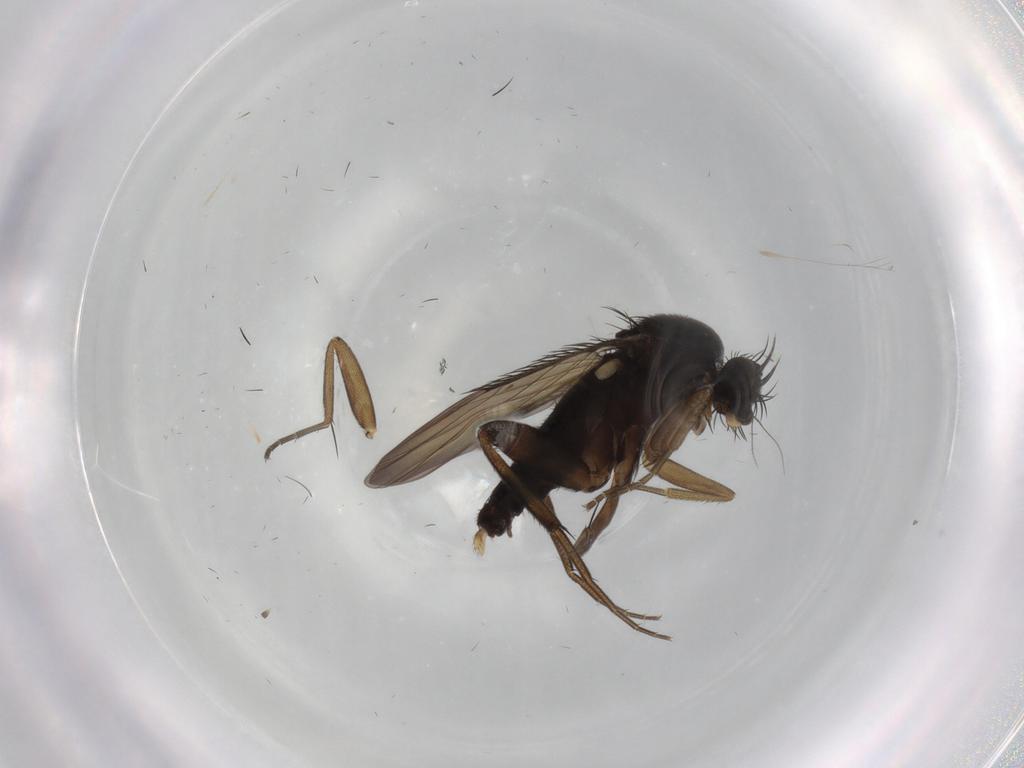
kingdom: Animalia
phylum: Arthropoda
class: Insecta
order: Diptera
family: Phoridae
